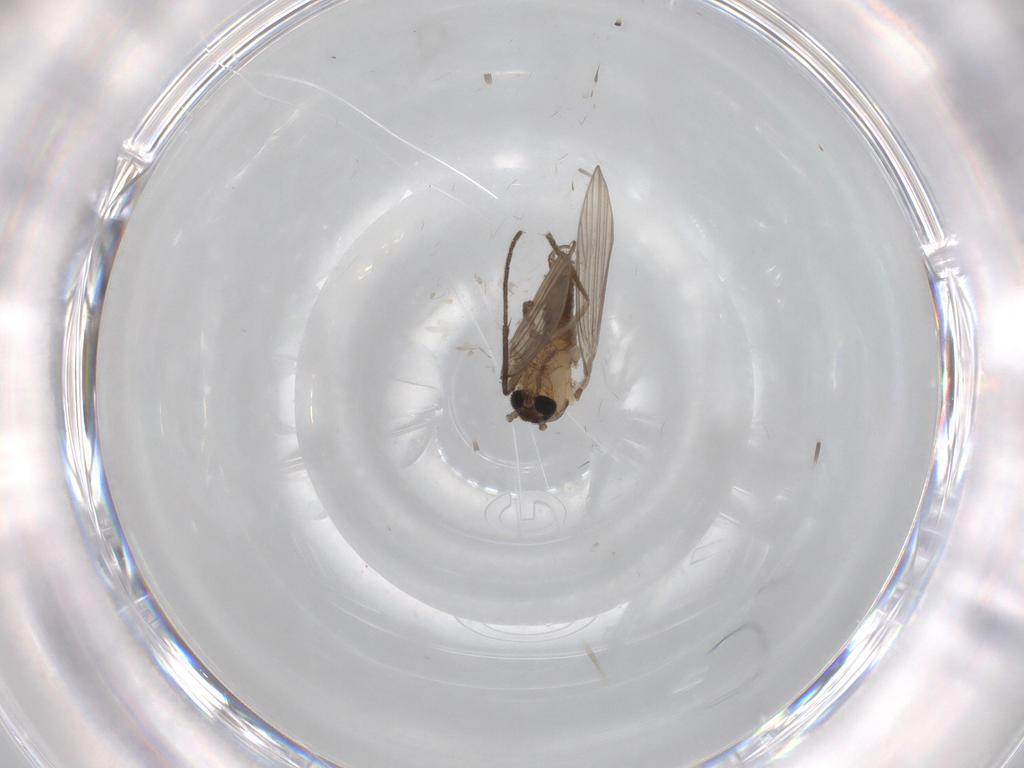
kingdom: Animalia
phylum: Arthropoda
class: Insecta
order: Diptera
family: Psychodidae
